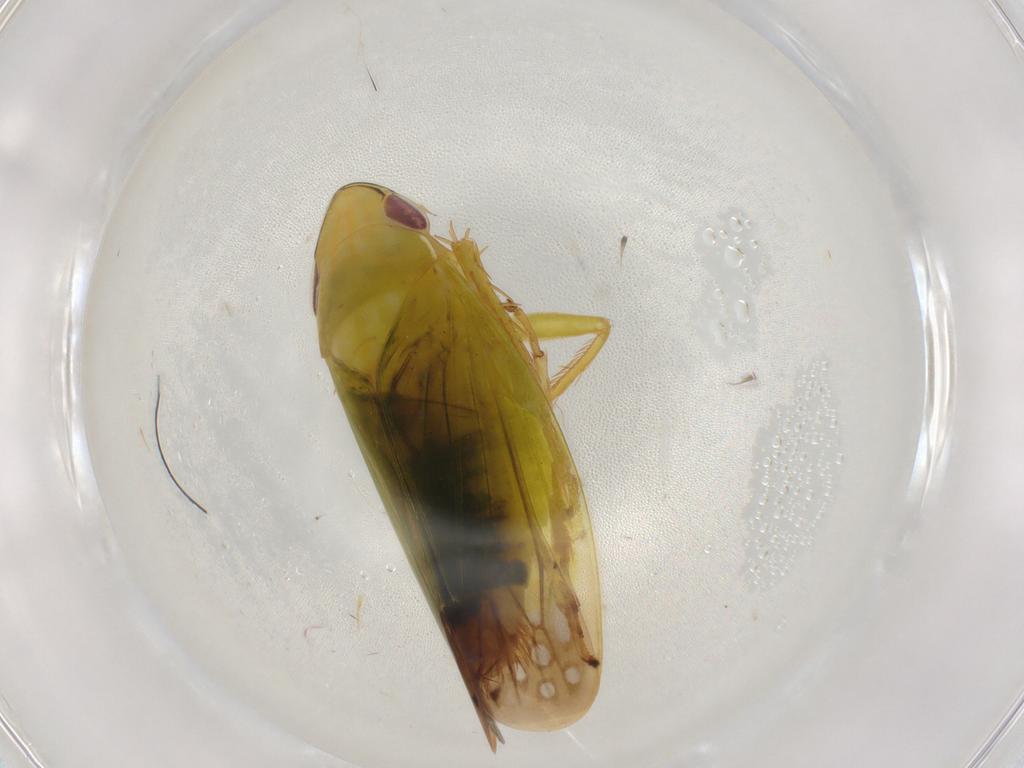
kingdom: Animalia
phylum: Arthropoda
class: Insecta
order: Hemiptera
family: Cicadellidae
